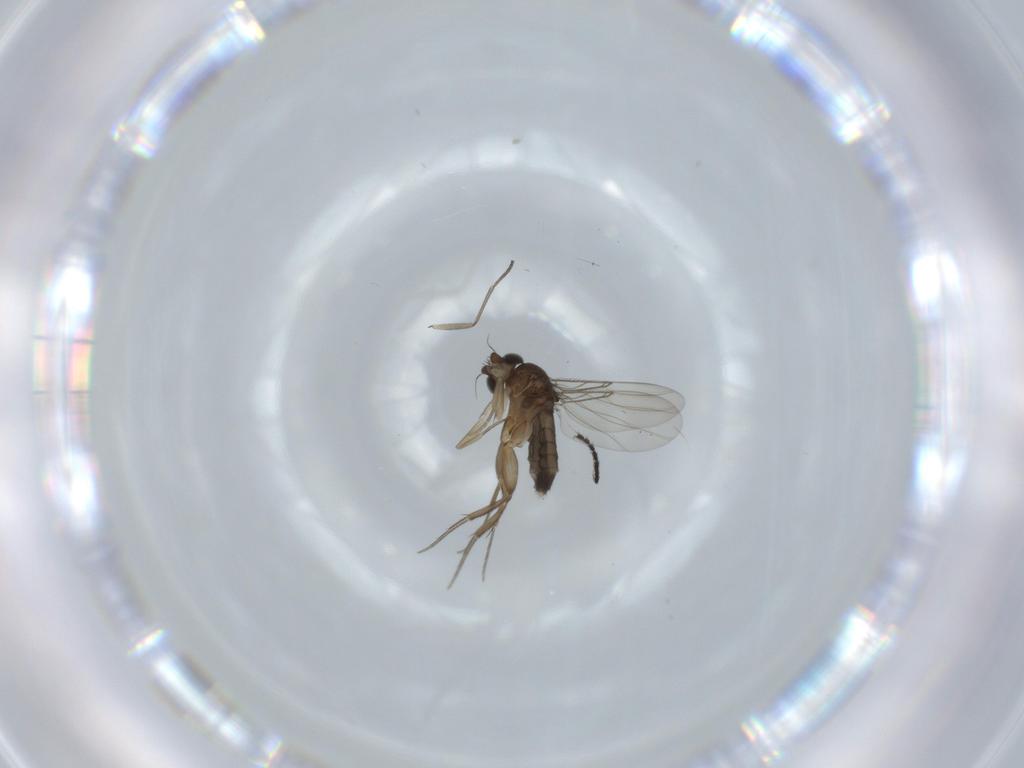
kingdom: Animalia
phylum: Arthropoda
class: Insecta
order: Diptera
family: Phoridae
